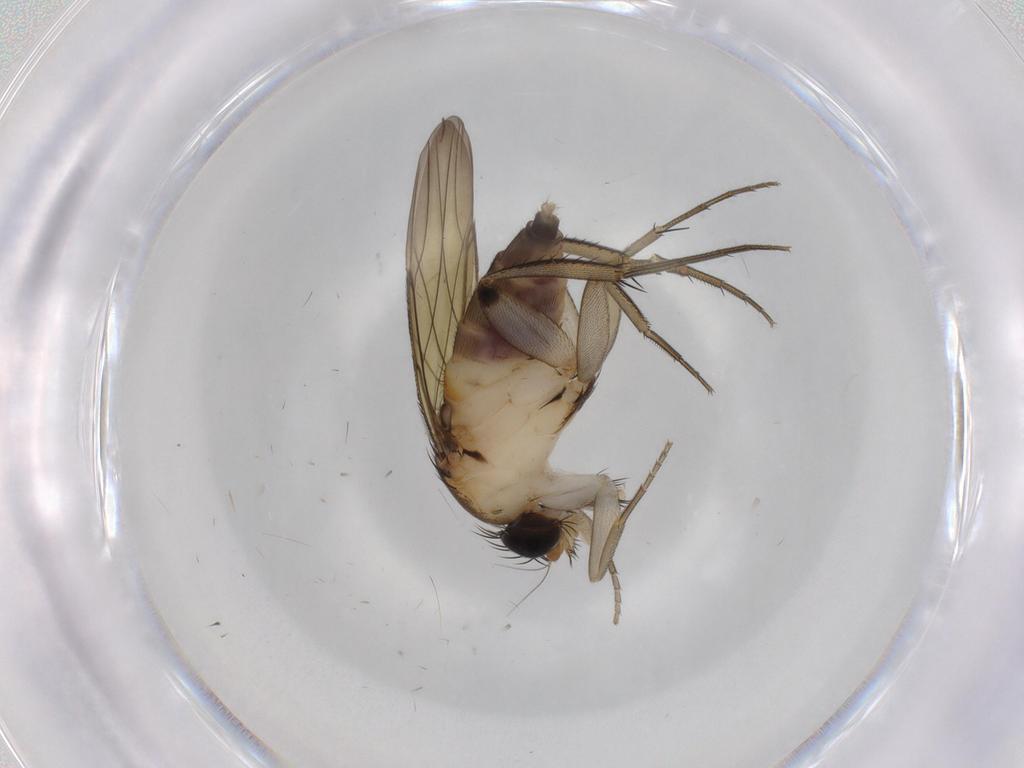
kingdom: Animalia
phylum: Arthropoda
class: Insecta
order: Diptera
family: Phoridae
